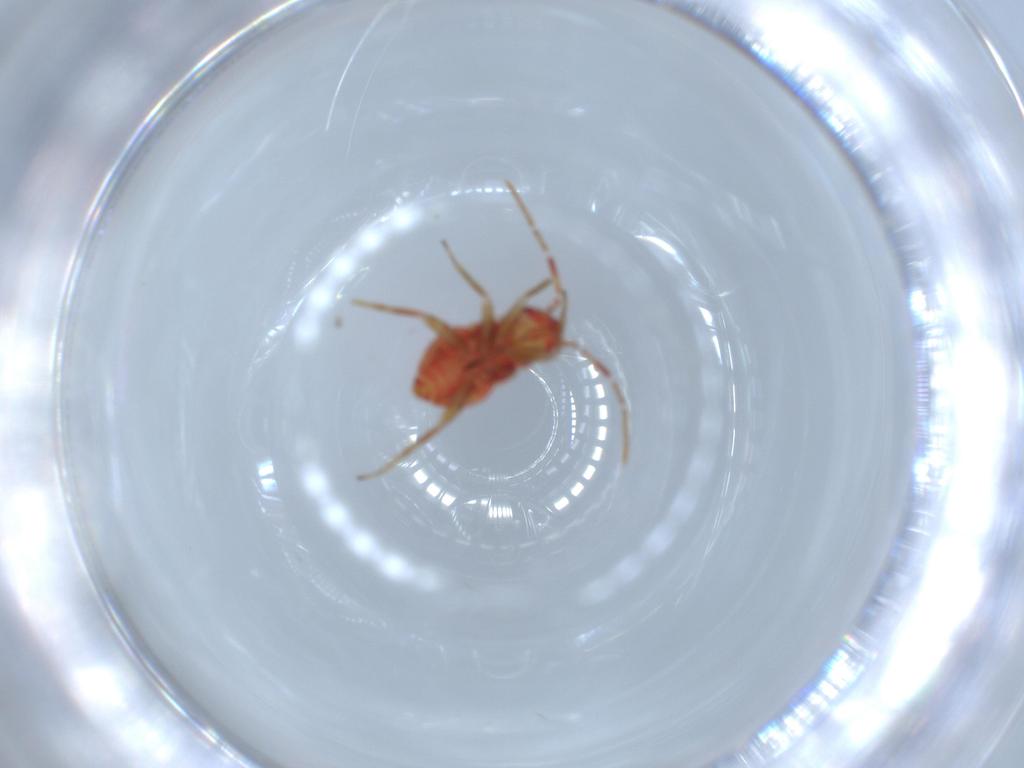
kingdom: Animalia
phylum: Arthropoda
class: Insecta
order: Hemiptera
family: Miridae
